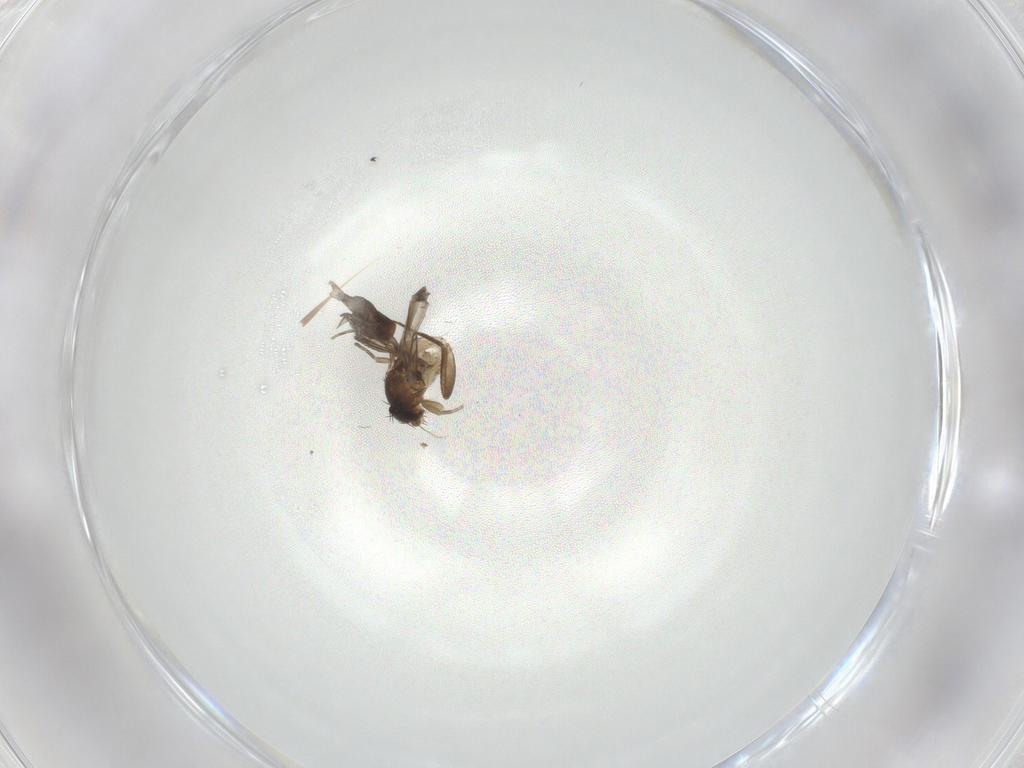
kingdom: Animalia
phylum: Arthropoda
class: Insecta
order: Diptera
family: Phoridae
